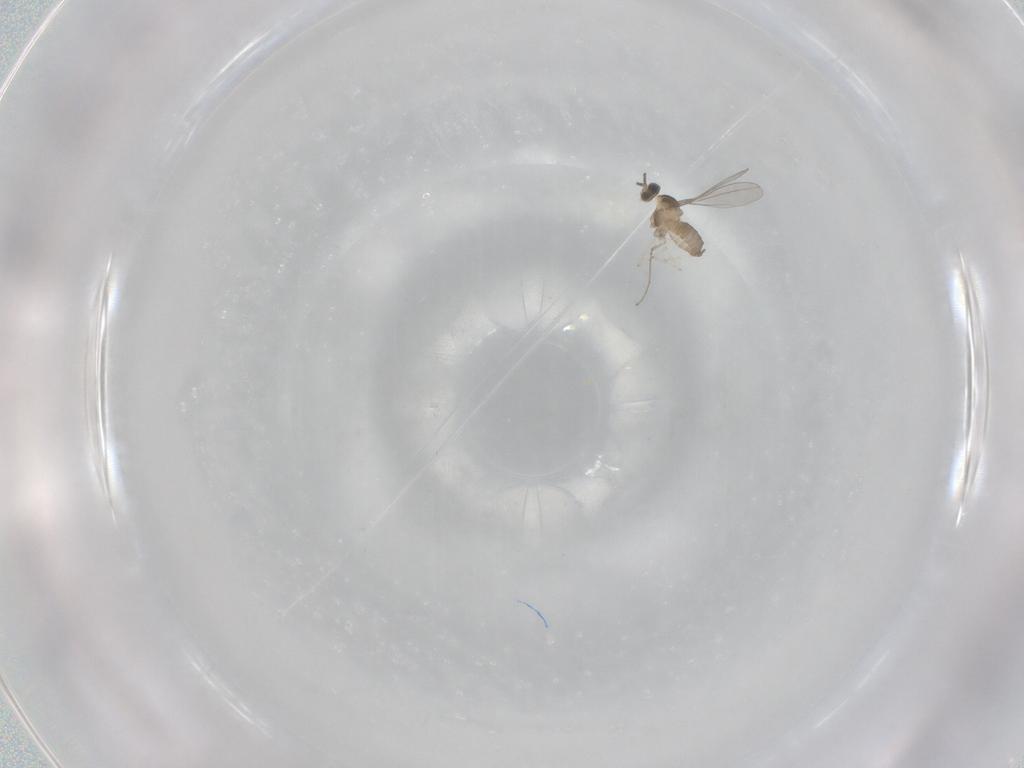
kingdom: Animalia
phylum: Arthropoda
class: Insecta
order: Diptera
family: Cecidomyiidae
